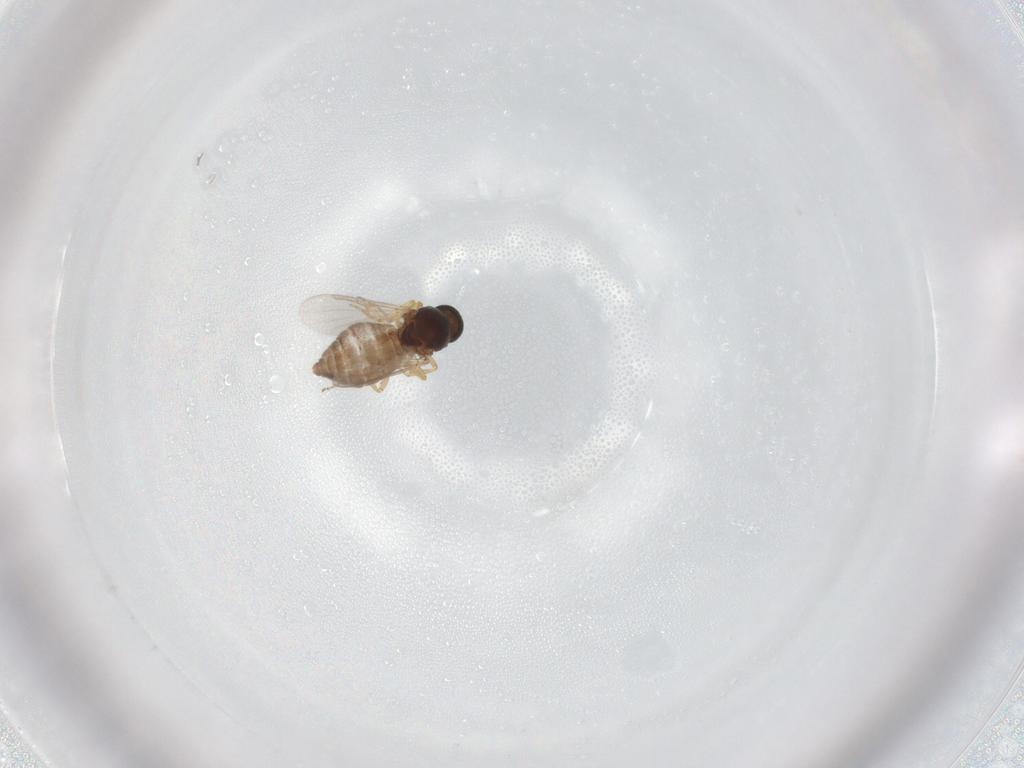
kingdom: Animalia
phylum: Arthropoda
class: Insecta
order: Diptera
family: Ceratopogonidae
